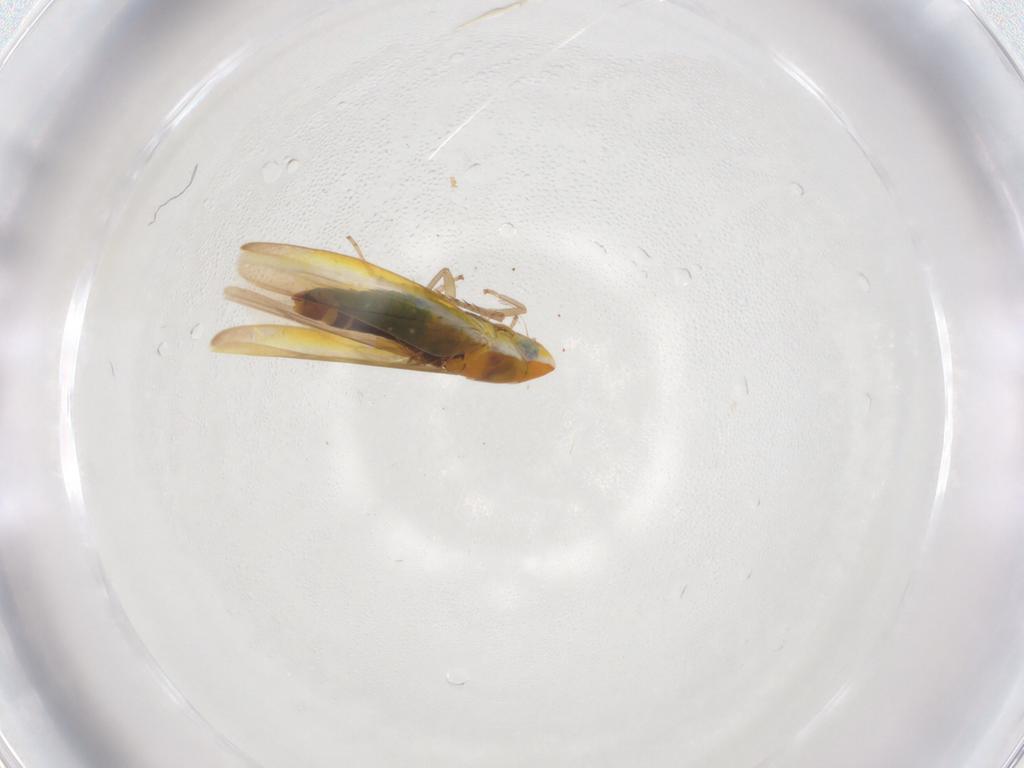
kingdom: Animalia
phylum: Arthropoda
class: Insecta
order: Hemiptera
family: Cicadellidae
